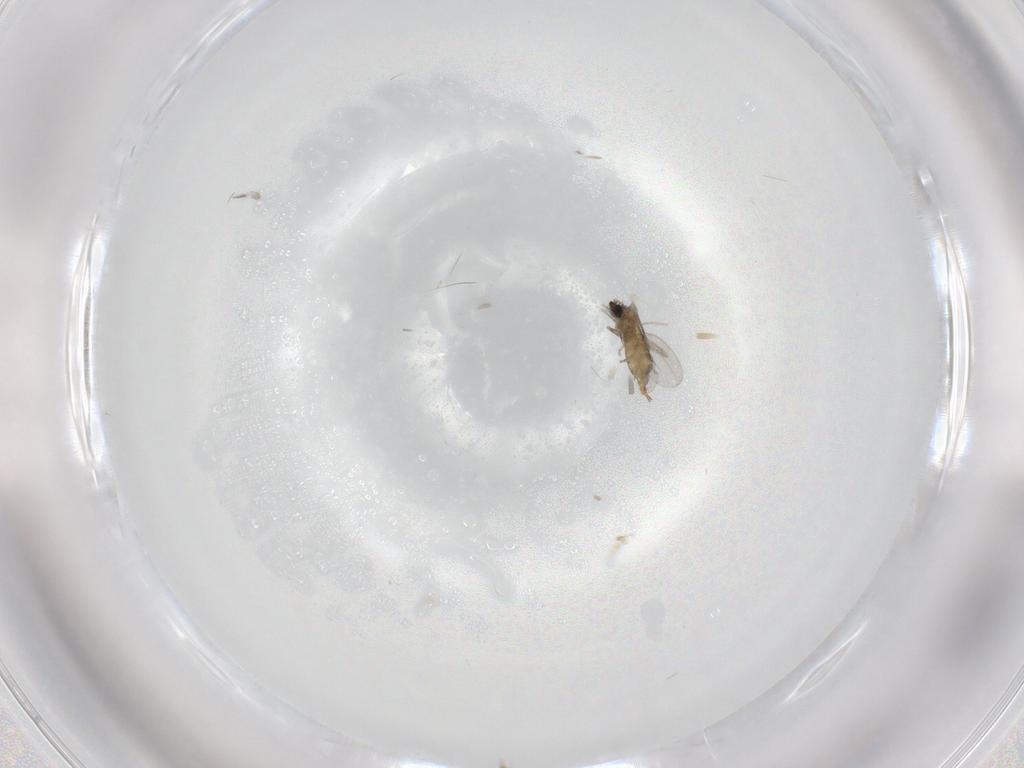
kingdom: Animalia
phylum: Arthropoda
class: Insecta
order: Diptera
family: Cecidomyiidae
